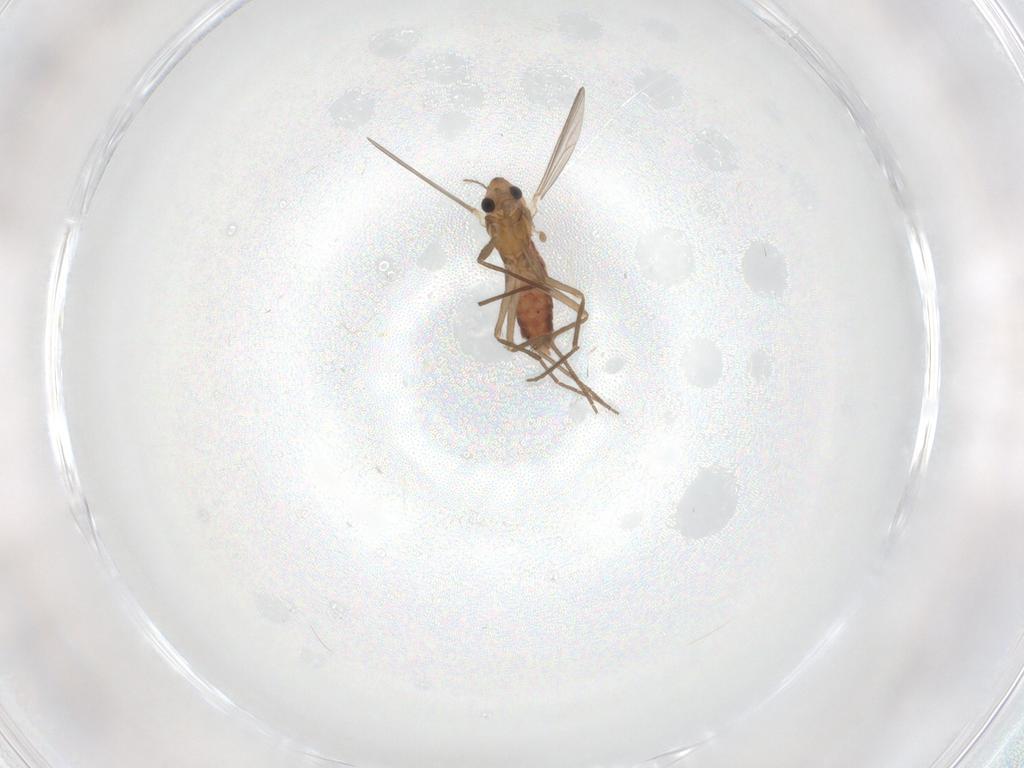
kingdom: Animalia
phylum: Arthropoda
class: Insecta
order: Diptera
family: Chironomidae
